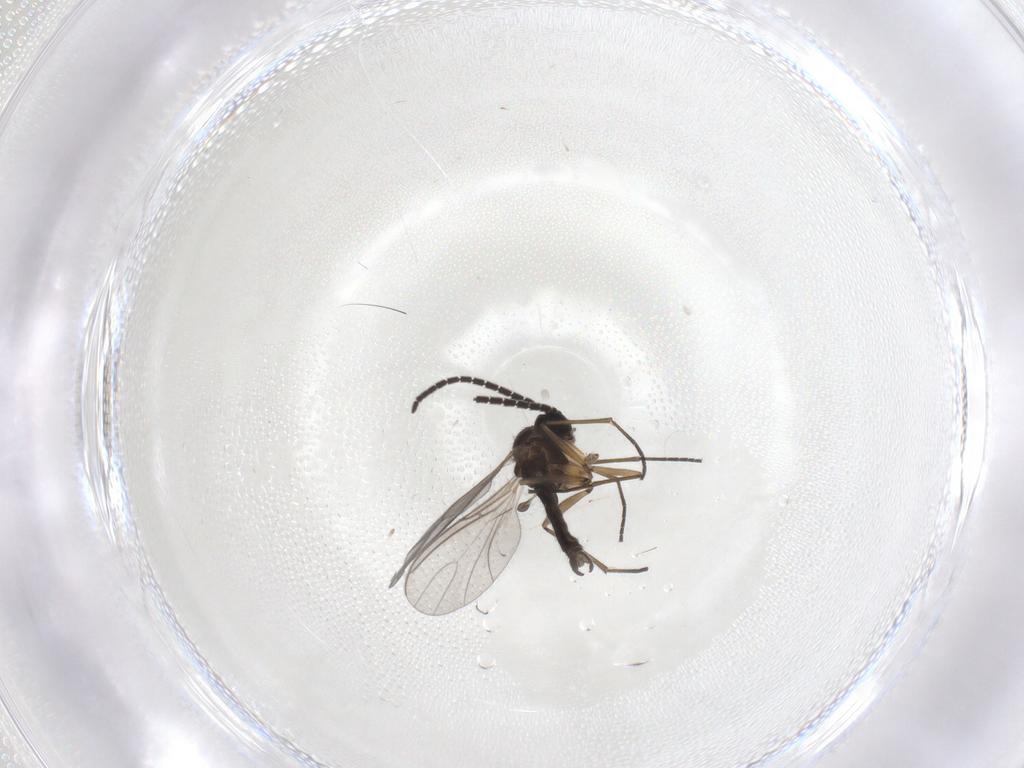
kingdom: Animalia
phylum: Arthropoda
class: Insecta
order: Diptera
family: Sciaridae
